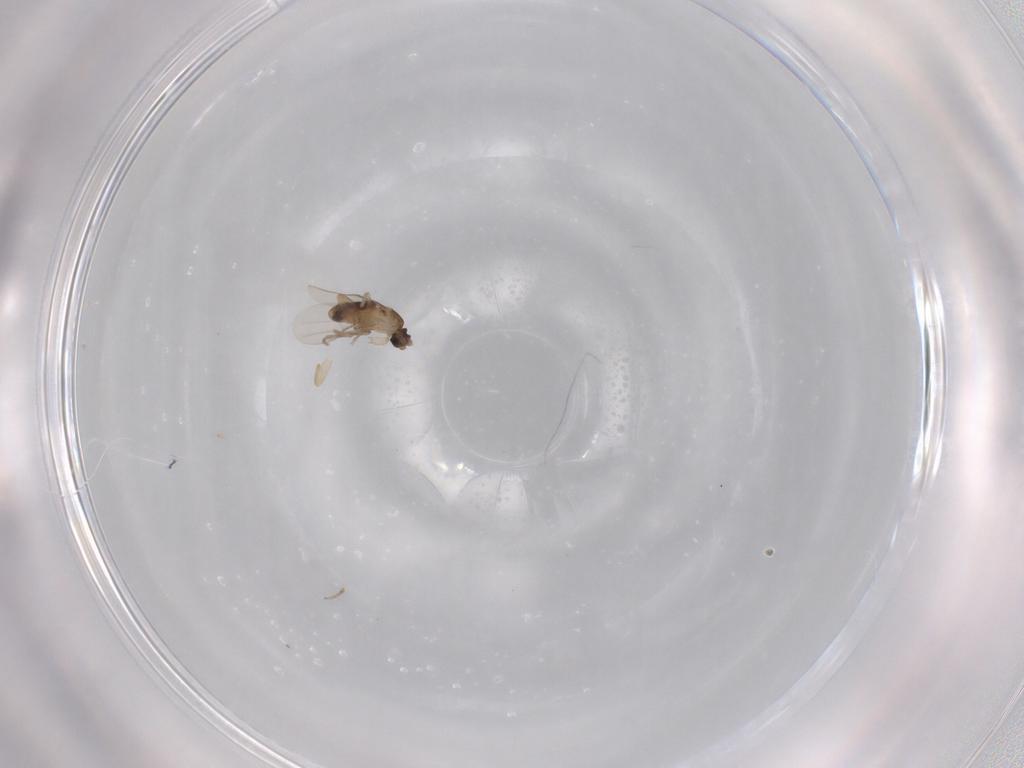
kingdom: Animalia
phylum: Arthropoda
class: Insecta
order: Diptera
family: Phoridae
